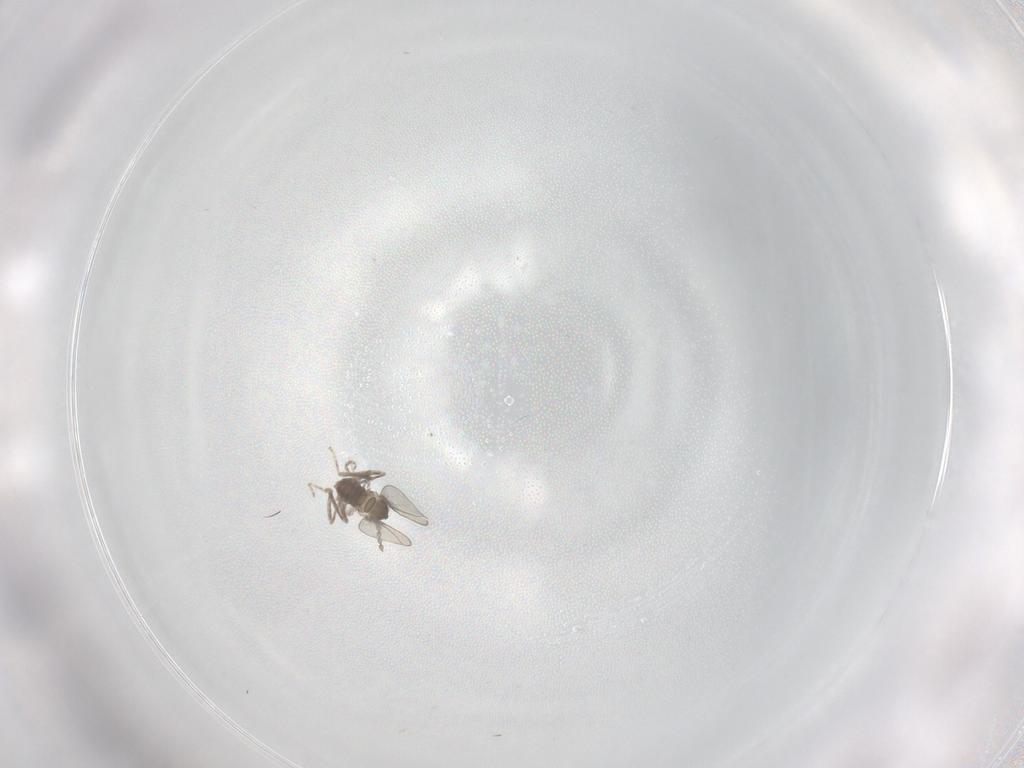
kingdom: Animalia
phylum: Arthropoda
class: Insecta
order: Diptera
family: Cecidomyiidae
